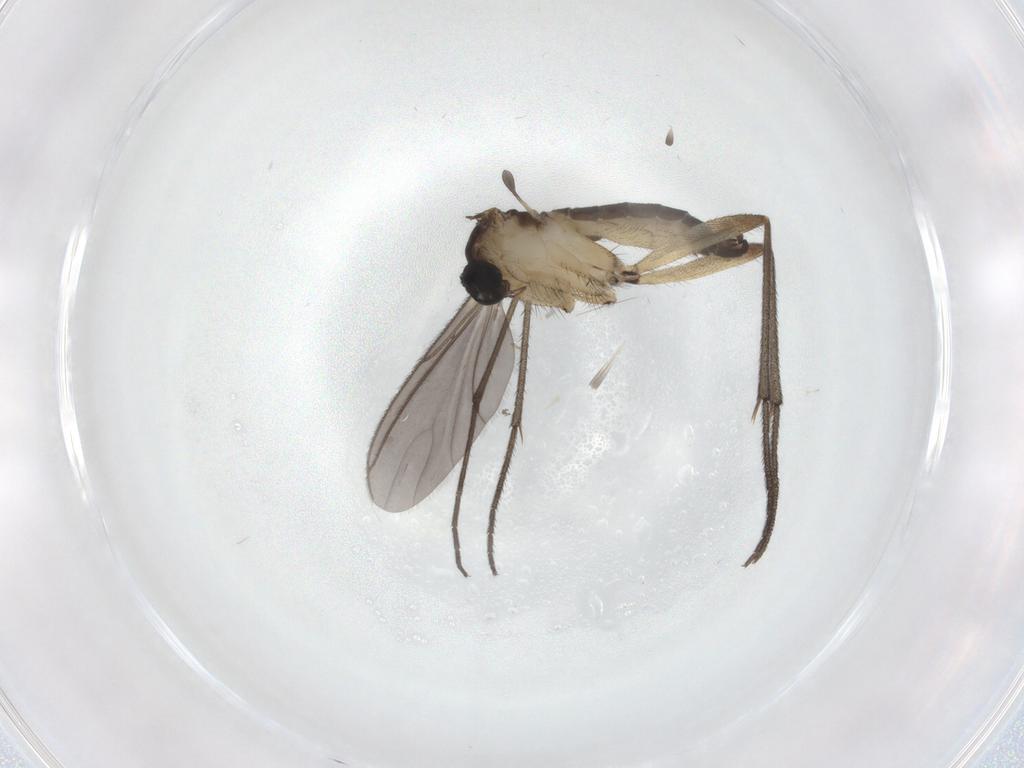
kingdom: Animalia
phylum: Arthropoda
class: Insecta
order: Diptera
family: Sciaridae
